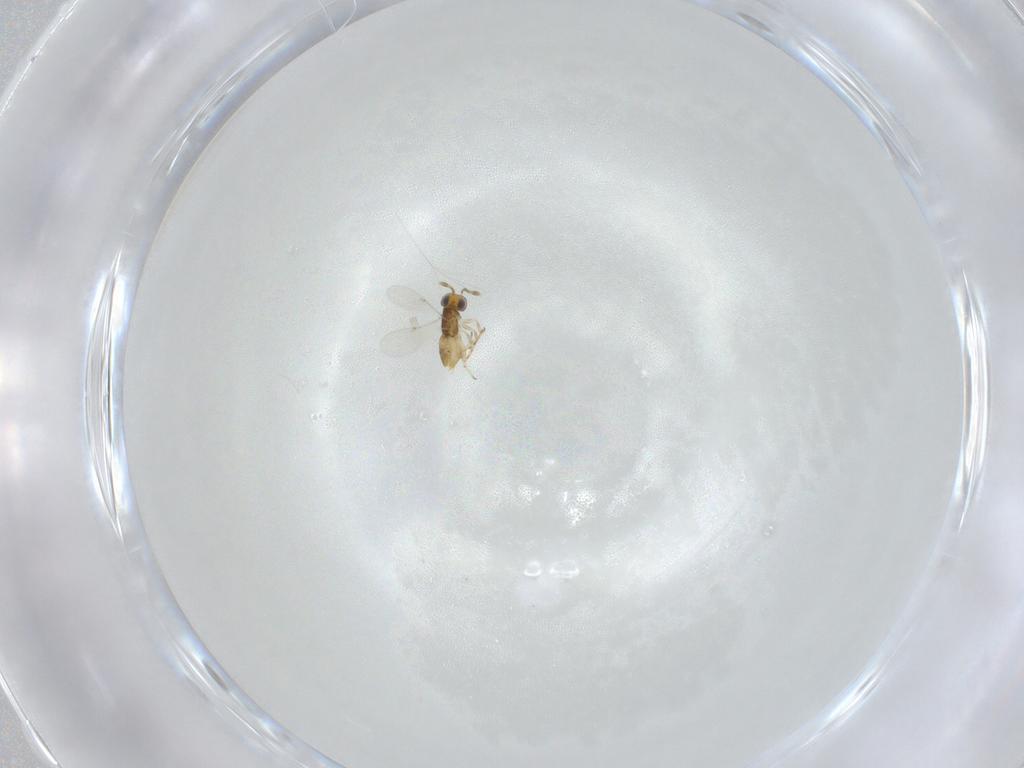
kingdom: Animalia
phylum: Arthropoda
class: Insecta
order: Hymenoptera
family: Encyrtidae
